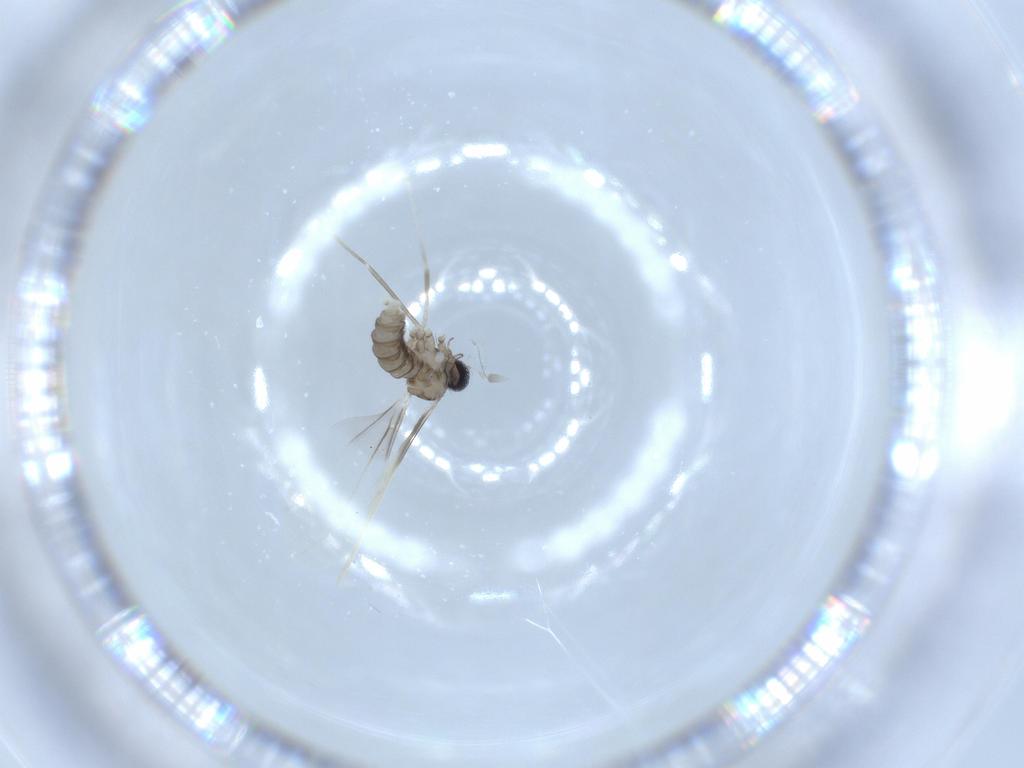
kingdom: Animalia
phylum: Arthropoda
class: Insecta
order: Diptera
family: Cecidomyiidae
